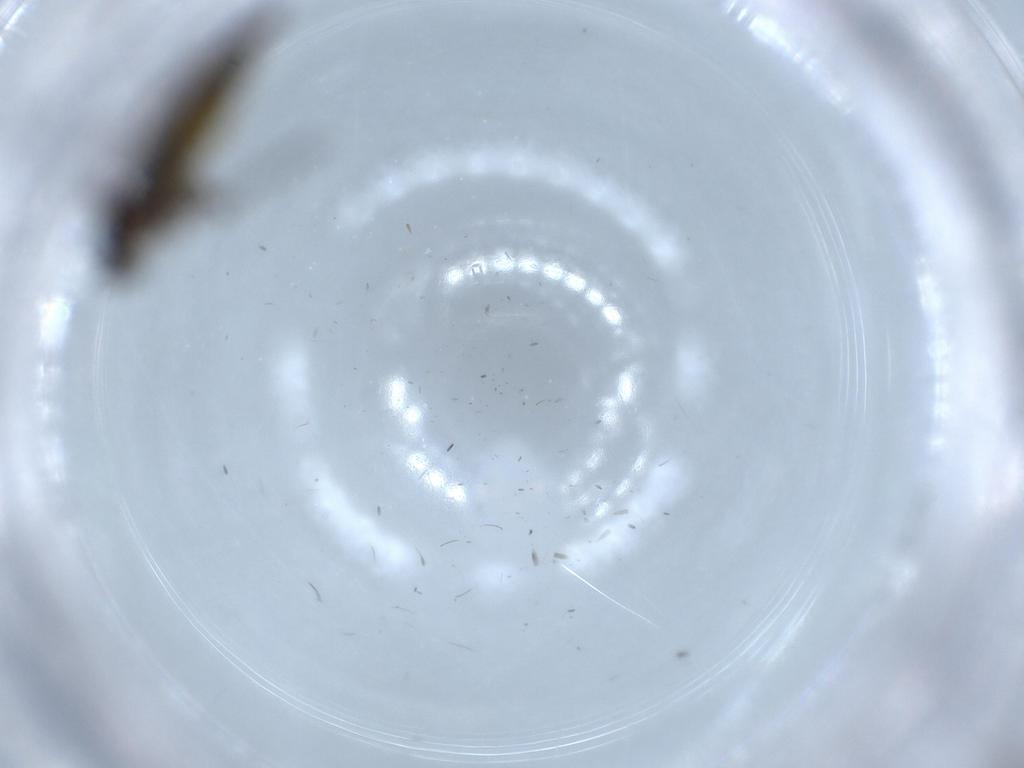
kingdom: Animalia
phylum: Arthropoda
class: Insecta
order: Diptera
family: Sciaridae
